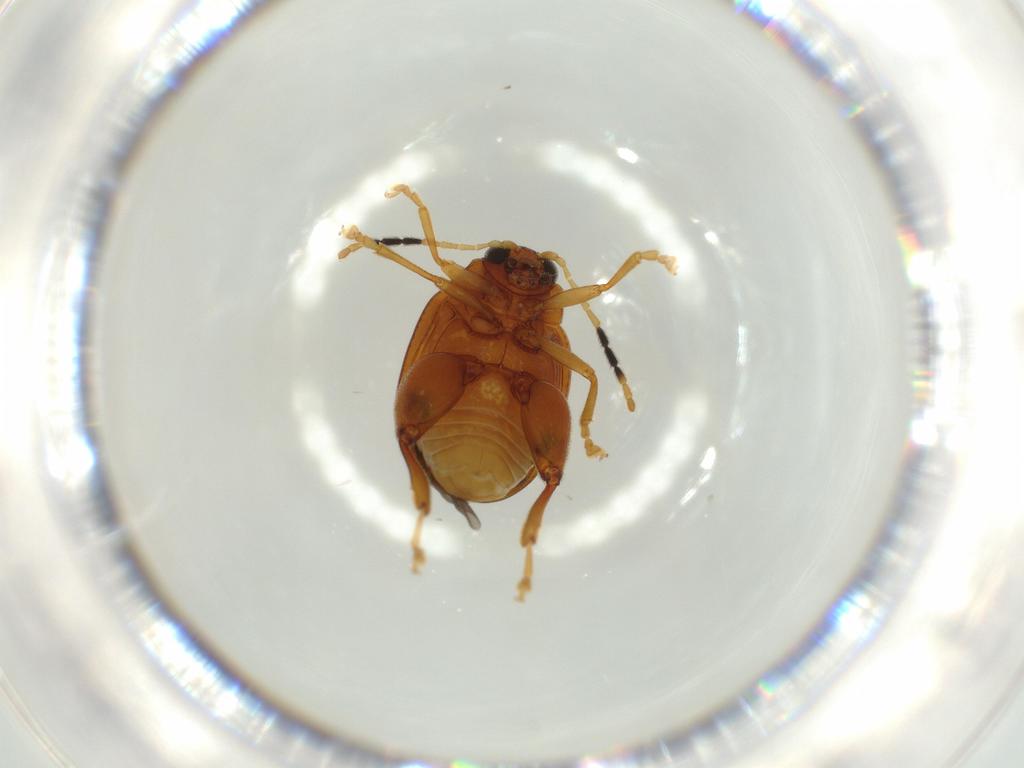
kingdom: Animalia
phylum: Arthropoda
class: Insecta
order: Coleoptera
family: Chrysomelidae
